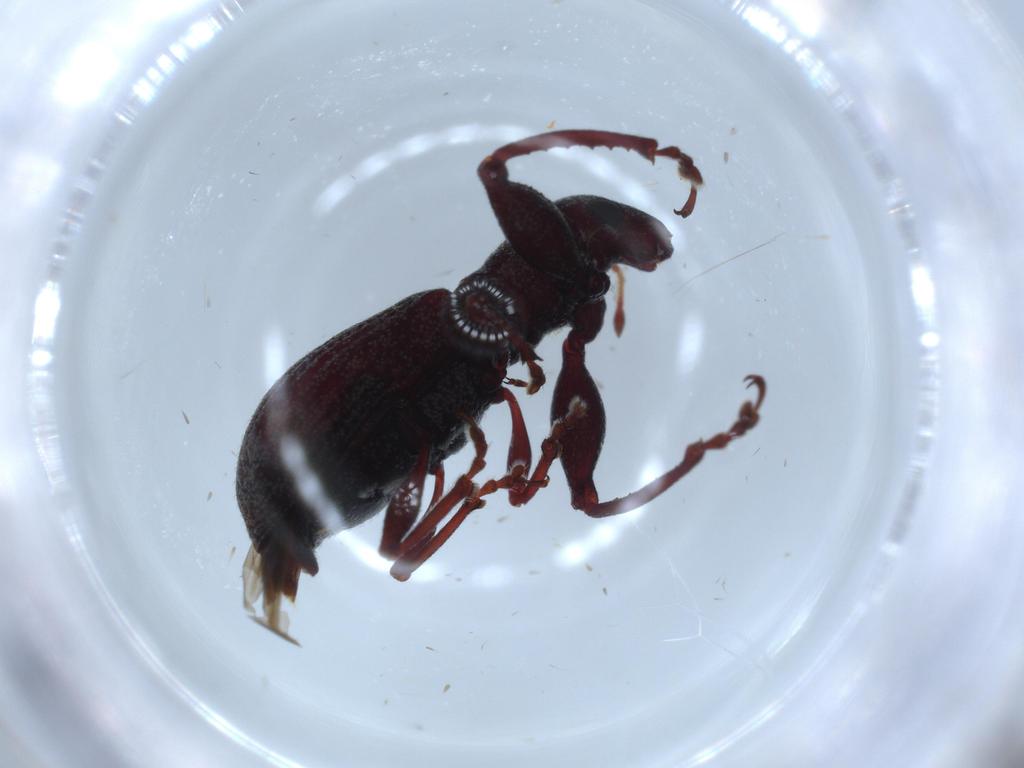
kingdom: Animalia
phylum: Arthropoda
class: Insecta
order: Coleoptera
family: Curculionidae
